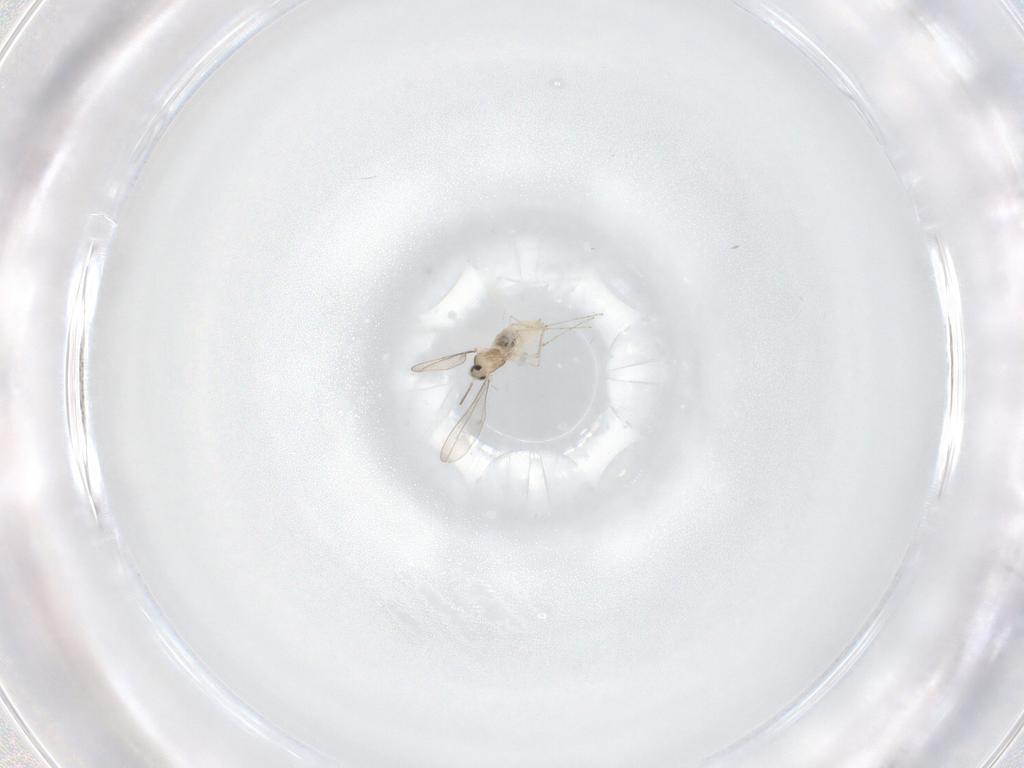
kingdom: Animalia
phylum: Arthropoda
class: Insecta
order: Diptera
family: Cecidomyiidae
